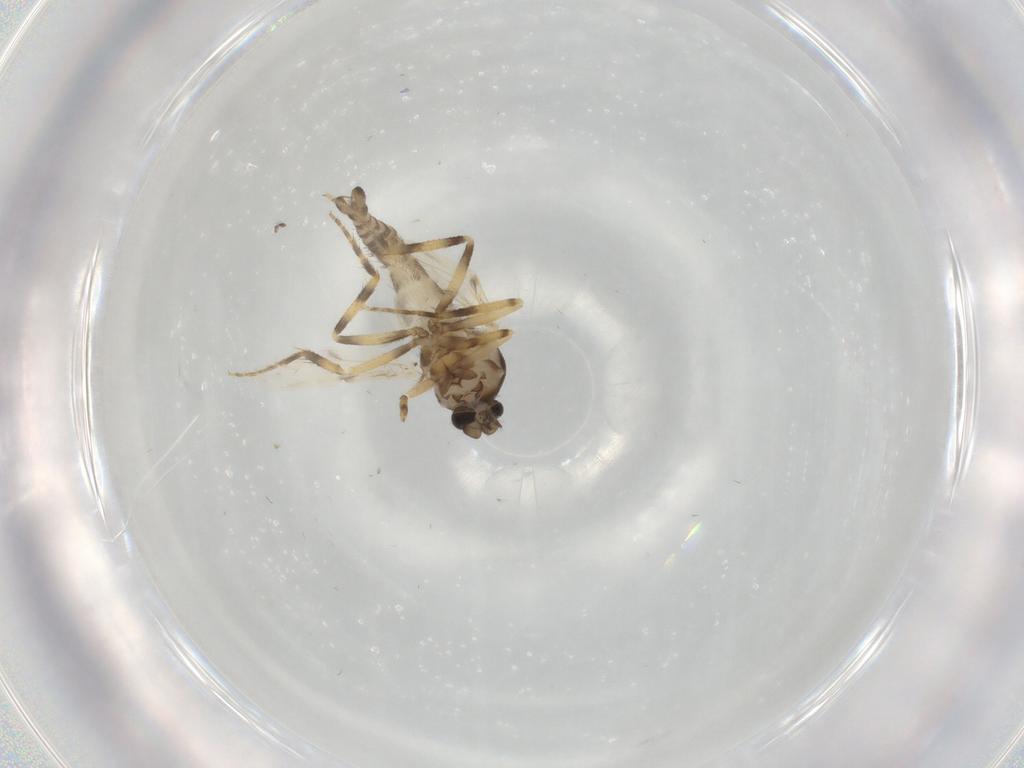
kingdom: Animalia
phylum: Arthropoda
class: Insecta
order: Diptera
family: Ceratopogonidae
